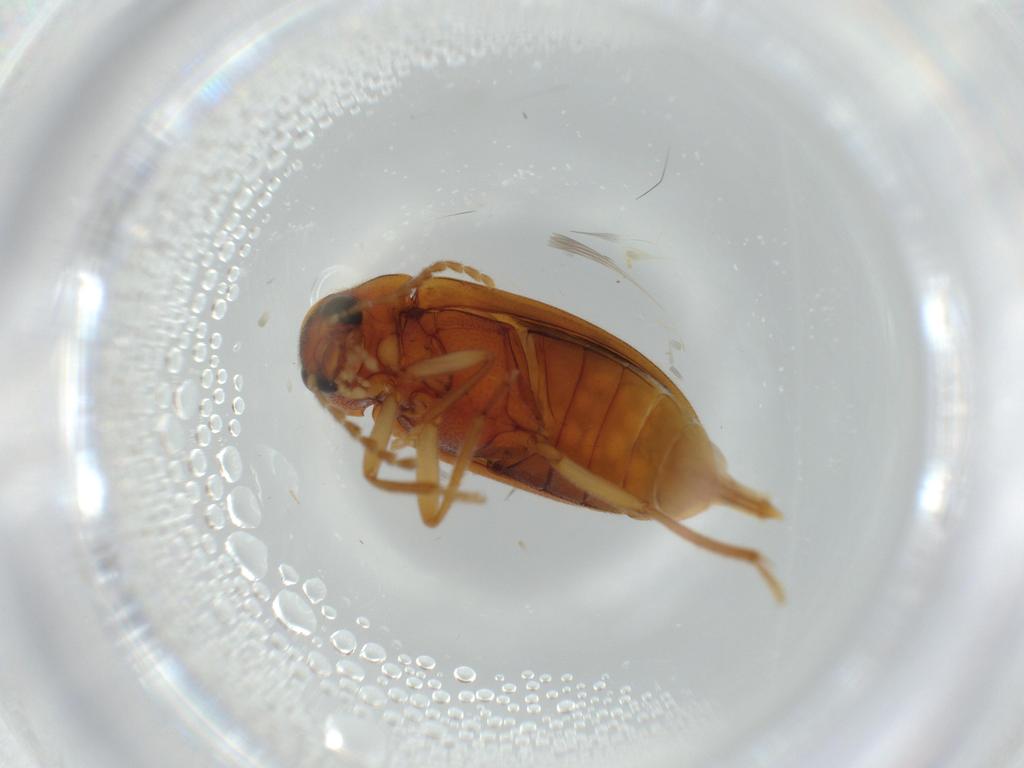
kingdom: Animalia
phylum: Arthropoda
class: Insecta
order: Coleoptera
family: Ptilodactylidae
